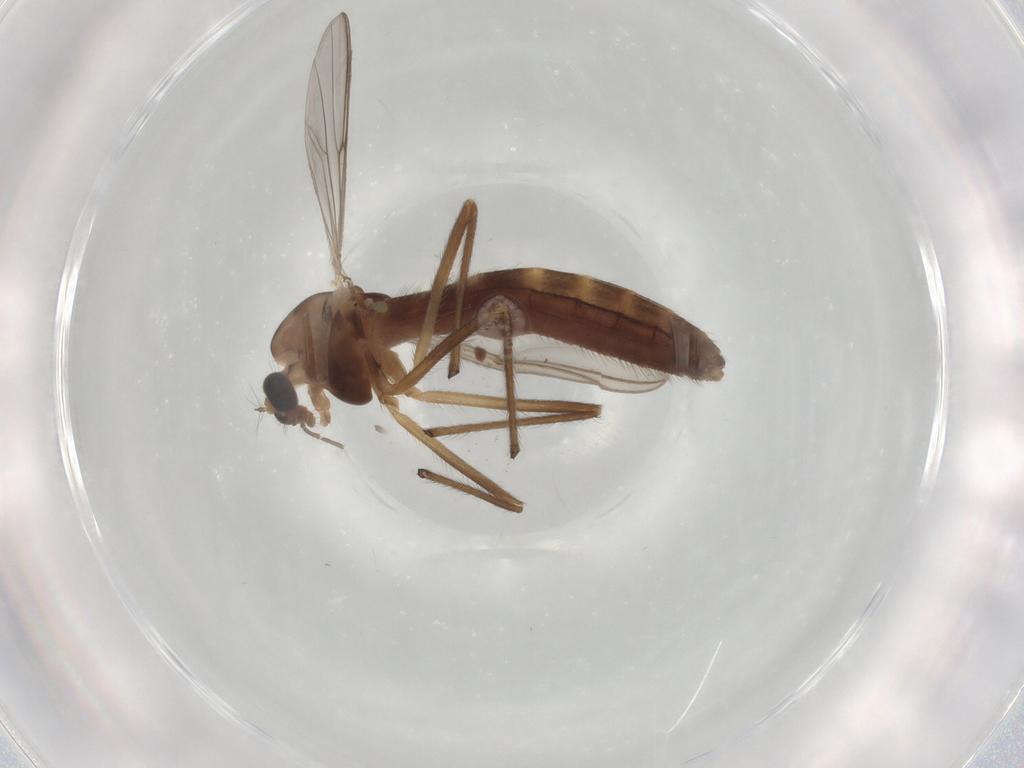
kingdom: Animalia
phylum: Arthropoda
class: Insecta
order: Diptera
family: Chironomidae
